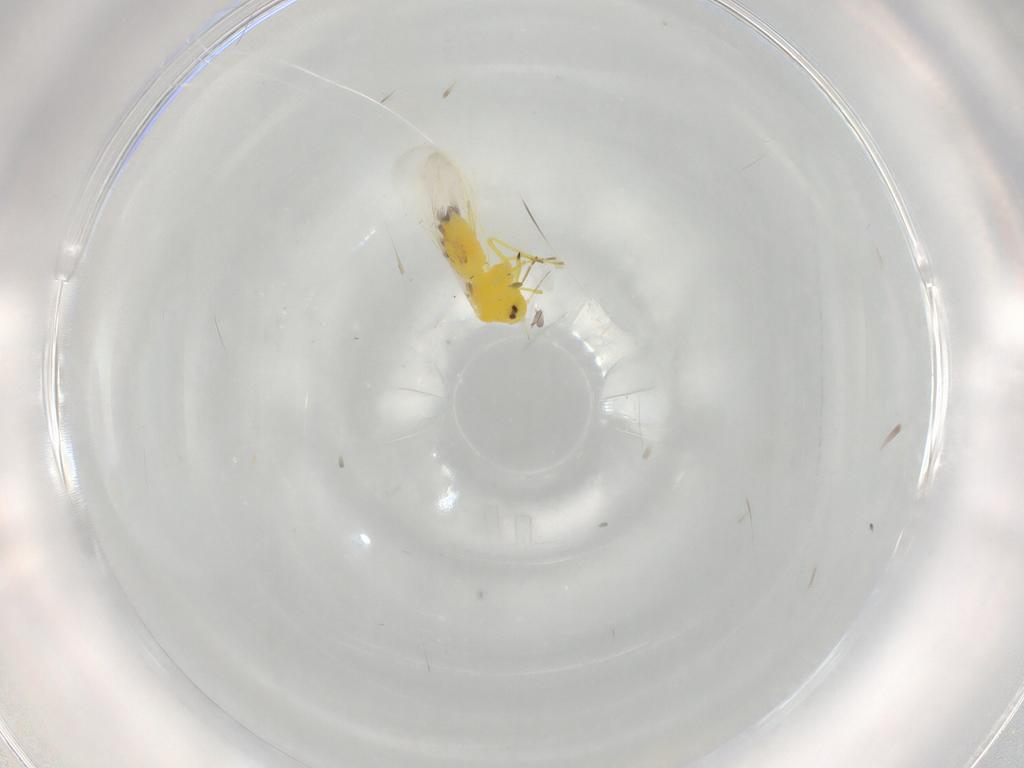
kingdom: Animalia
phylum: Arthropoda
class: Insecta
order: Hemiptera
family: Aleyrodidae
